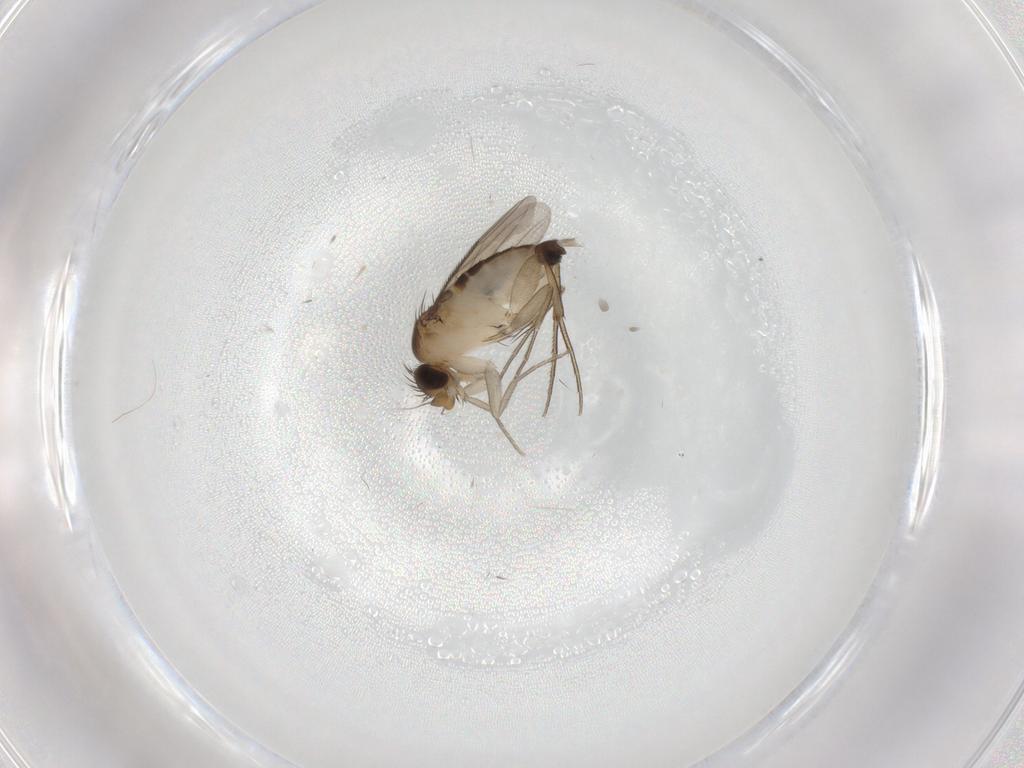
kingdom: Animalia
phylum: Arthropoda
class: Insecta
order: Diptera
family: Phoridae
